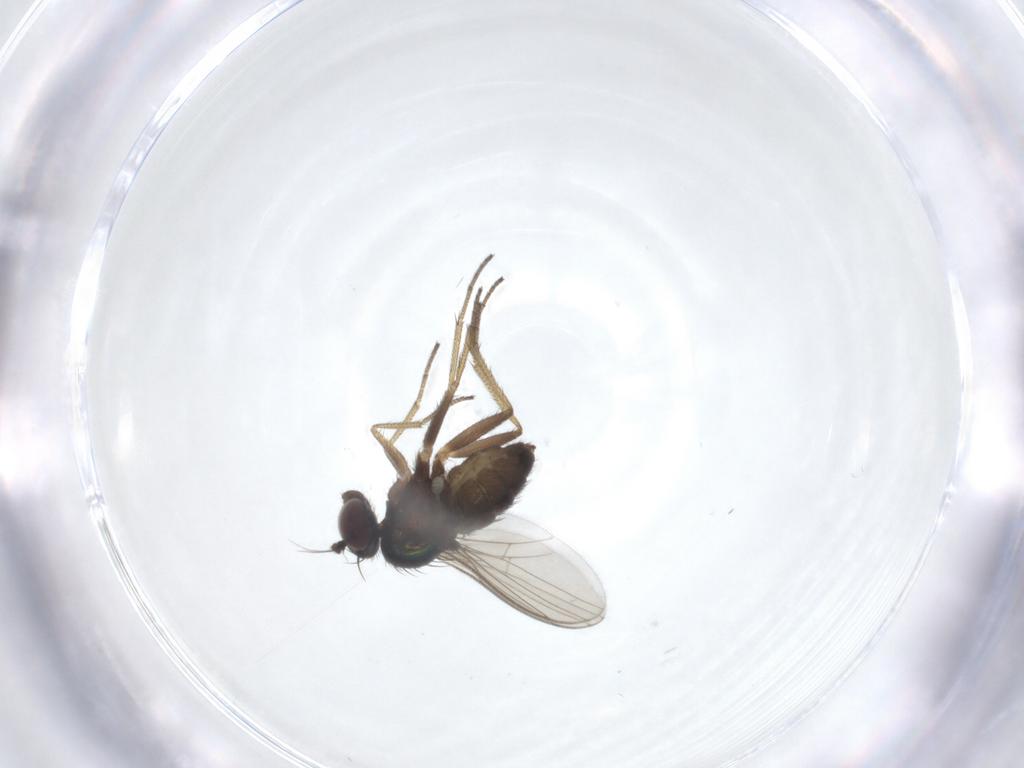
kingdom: Animalia
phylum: Arthropoda
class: Insecta
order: Diptera
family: Dolichopodidae
